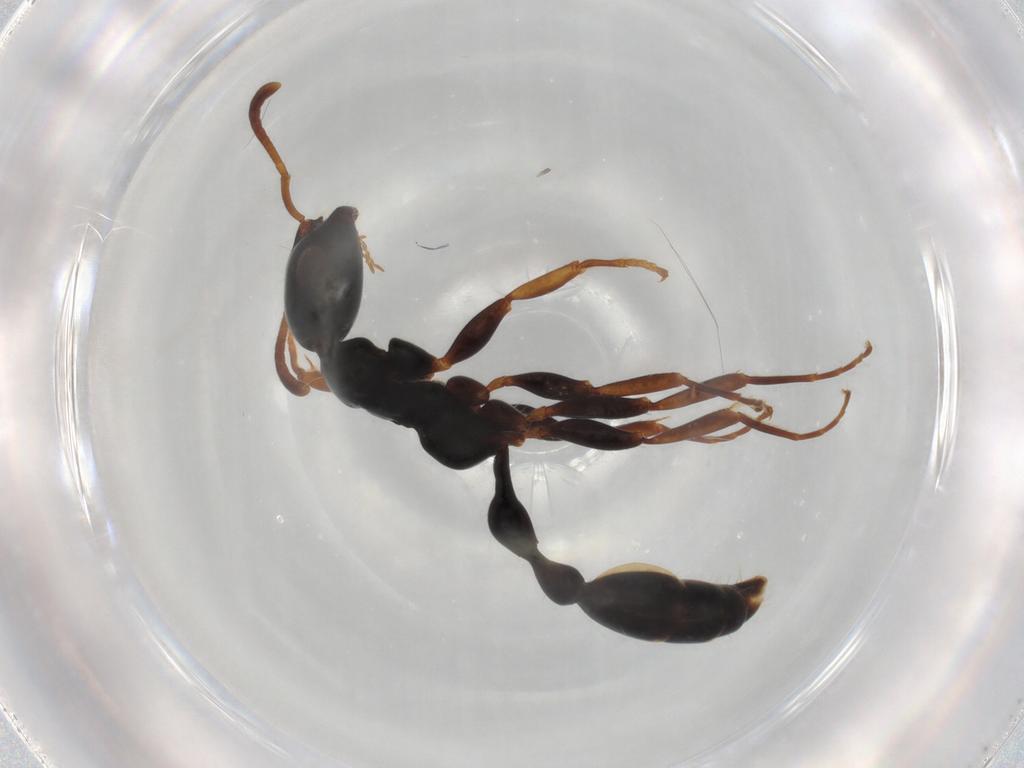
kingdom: Animalia
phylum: Arthropoda
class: Insecta
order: Hymenoptera
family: Formicidae
